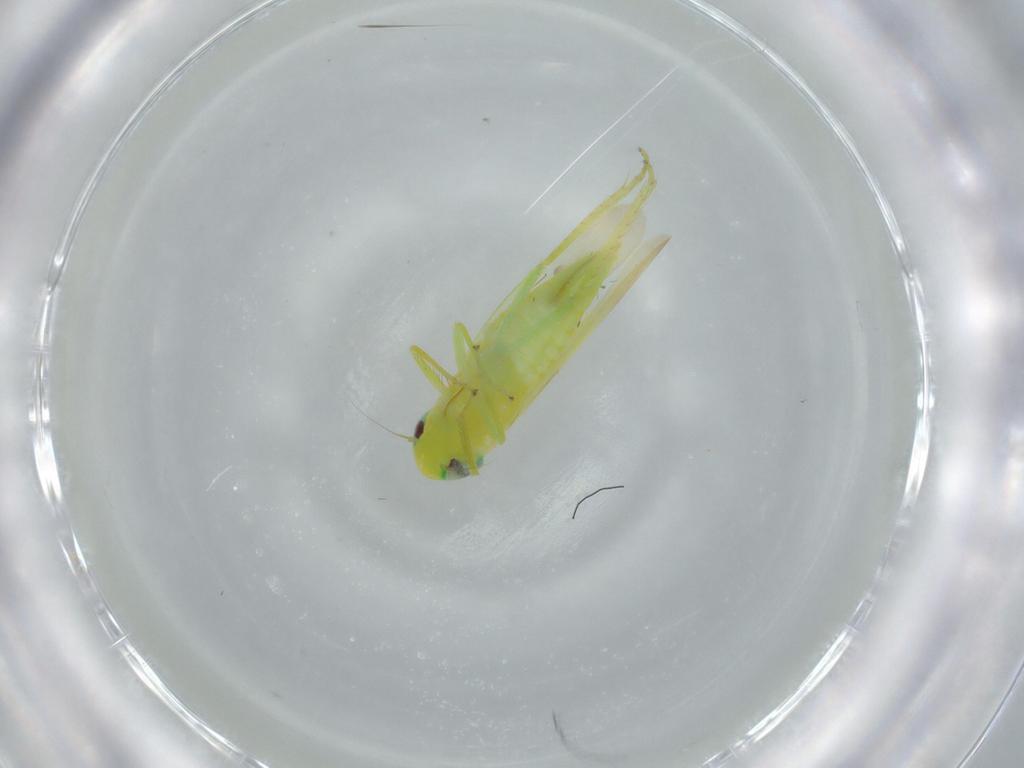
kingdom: Animalia
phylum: Arthropoda
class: Insecta
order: Hemiptera
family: Cicadellidae
